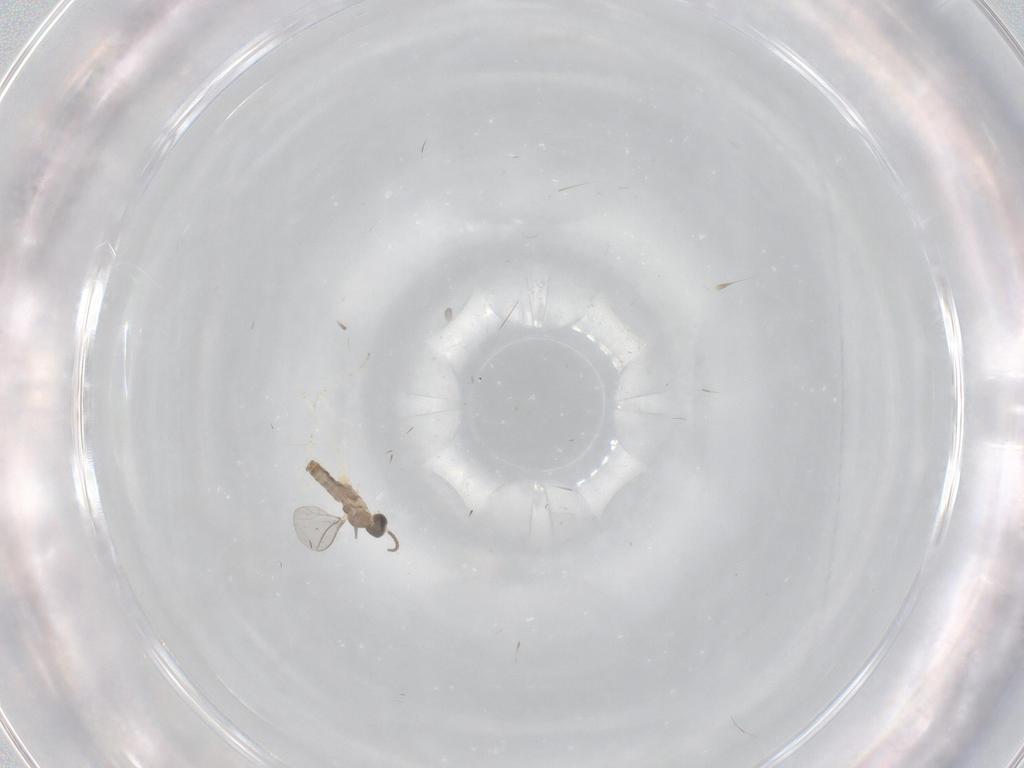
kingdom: Animalia
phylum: Arthropoda
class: Insecta
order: Diptera
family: Cecidomyiidae
